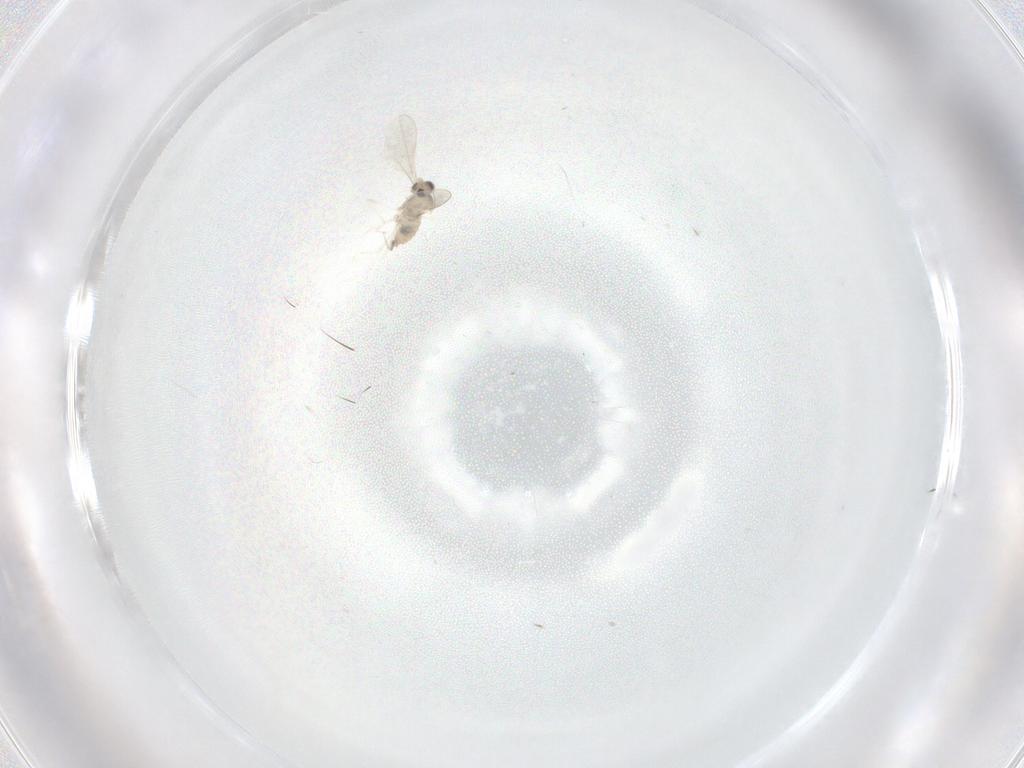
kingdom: Animalia
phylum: Arthropoda
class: Insecta
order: Diptera
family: Cecidomyiidae
